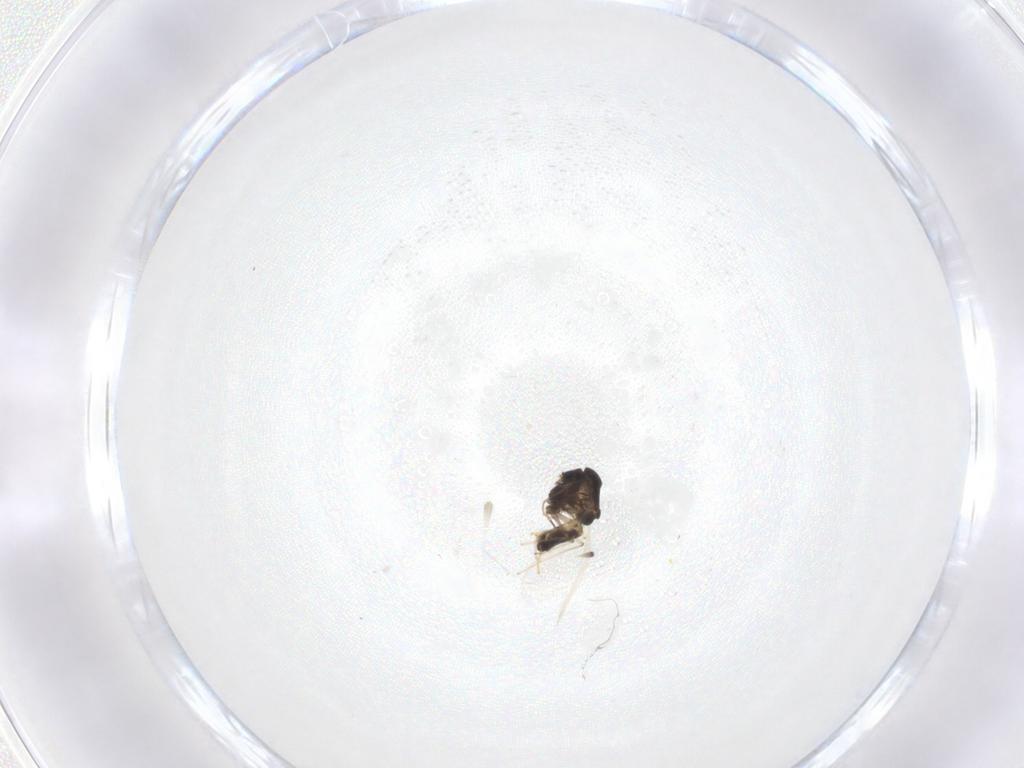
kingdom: Animalia
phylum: Arthropoda
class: Insecta
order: Diptera
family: Chironomidae
